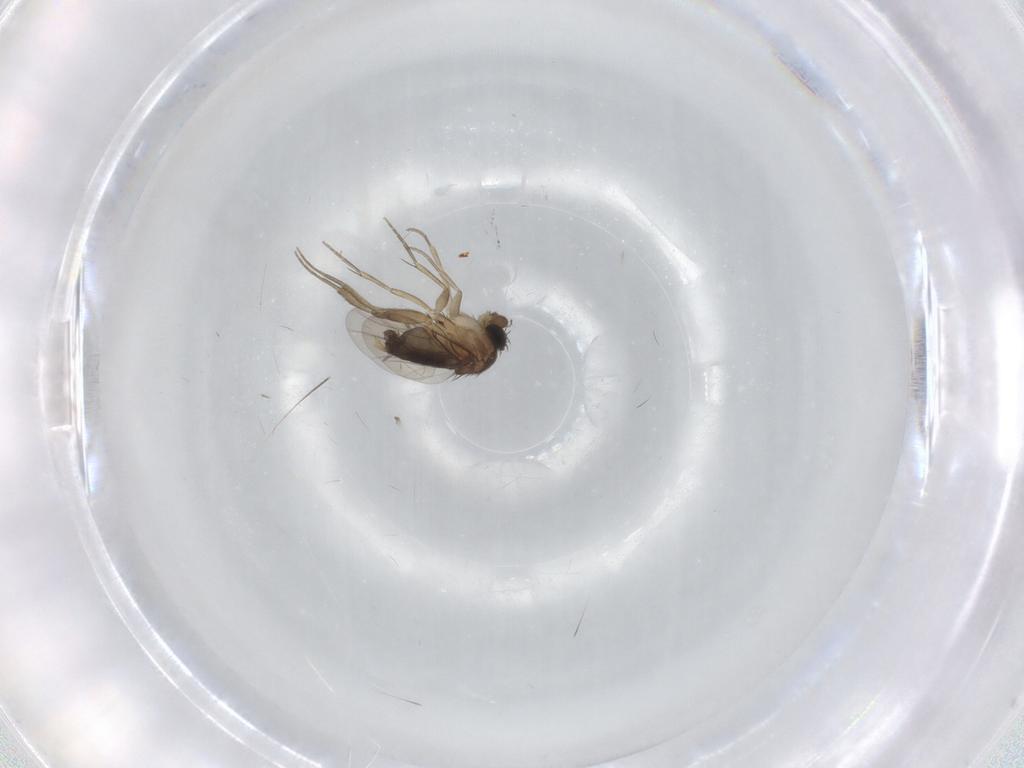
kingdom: Animalia
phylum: Arthropoda
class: Insecta
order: Diptera
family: Phoridae
